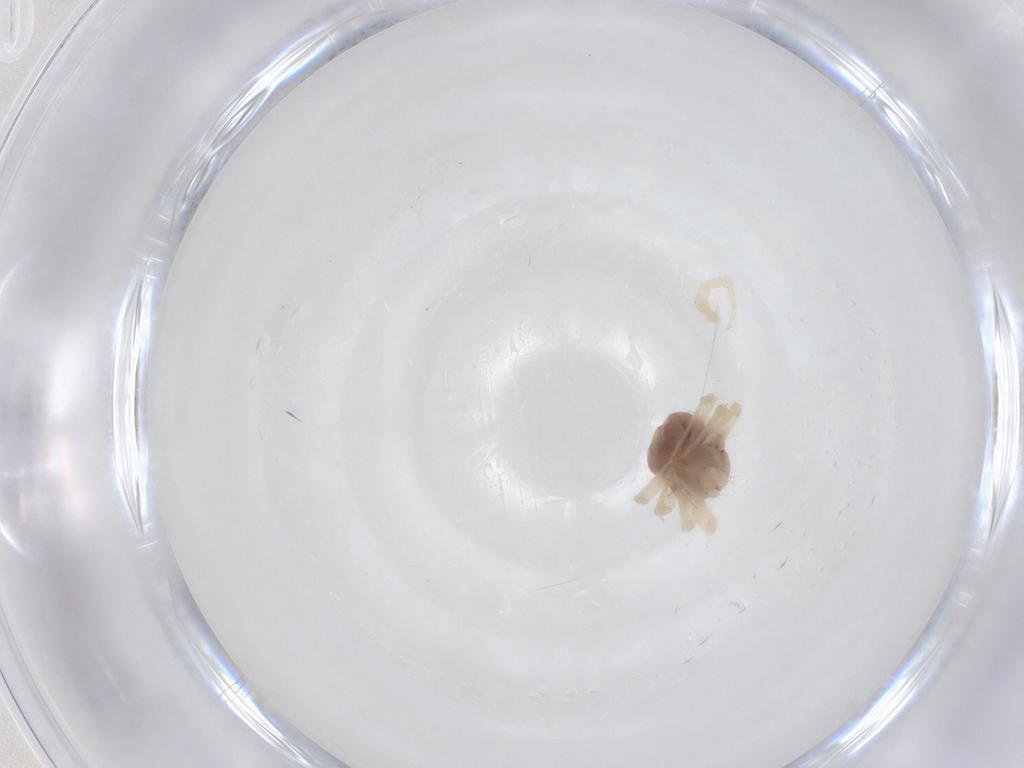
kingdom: Animalia
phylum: Arthropoda
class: Arachnida
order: Trombidiformes
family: Anystidae
